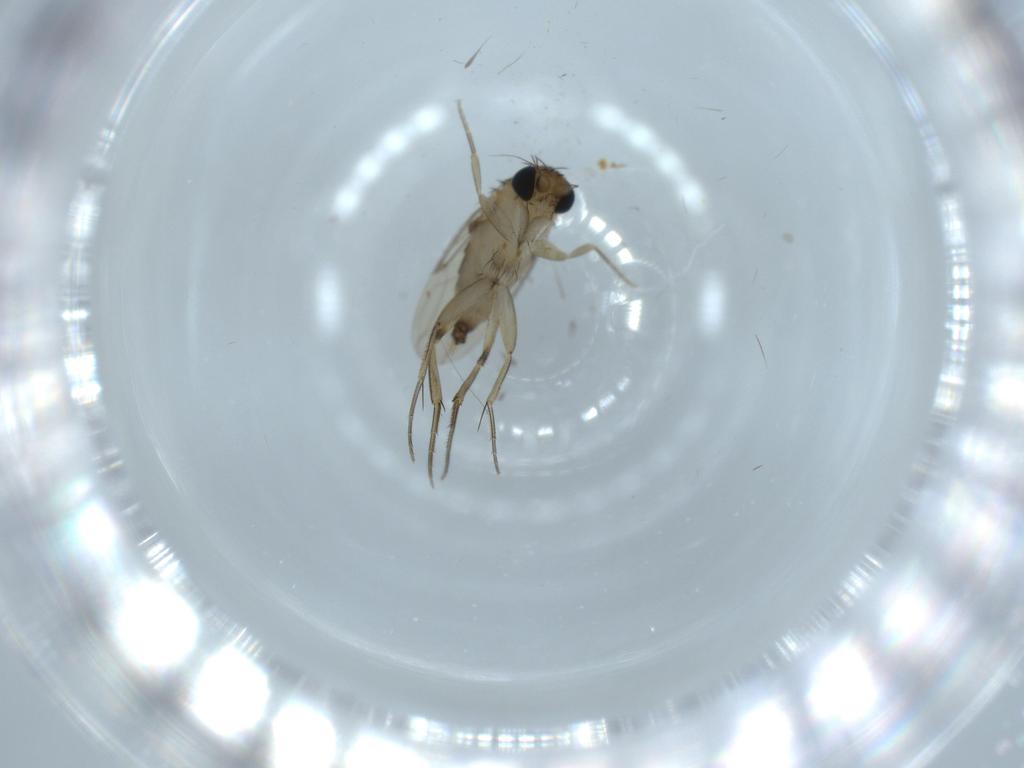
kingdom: Animalia
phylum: Arthropoda
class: Insecta
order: Diptera
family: Phoridae
